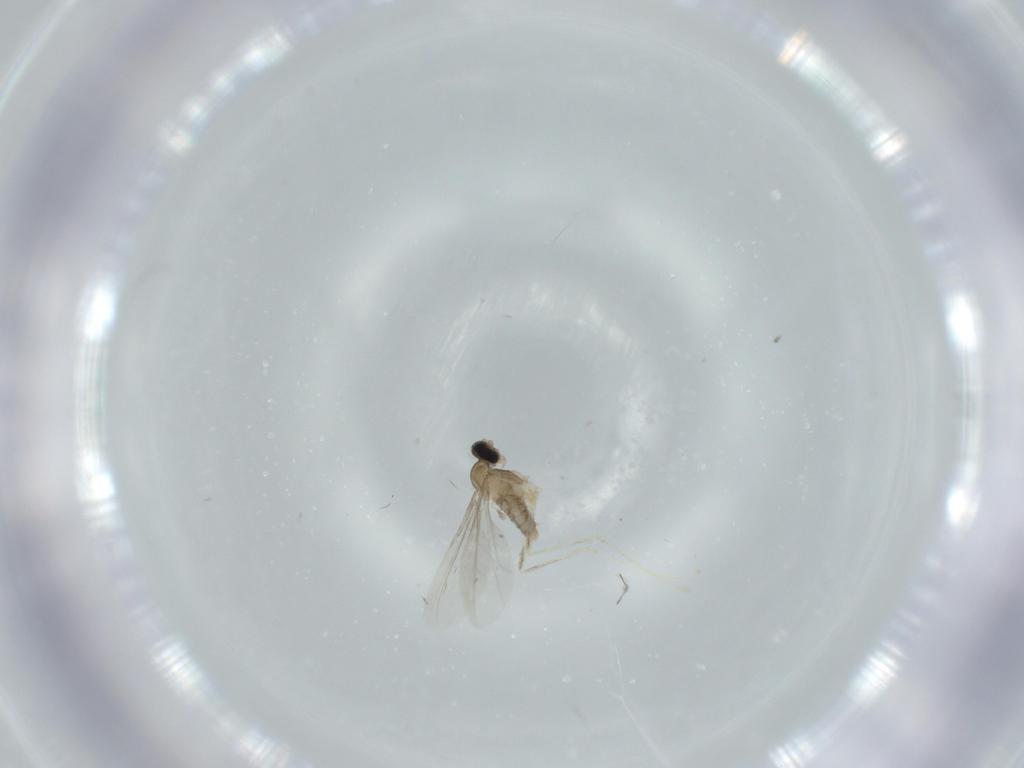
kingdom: Animalia
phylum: Arthropoda
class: Insecta
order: Diptera
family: Cecidomyiidae
